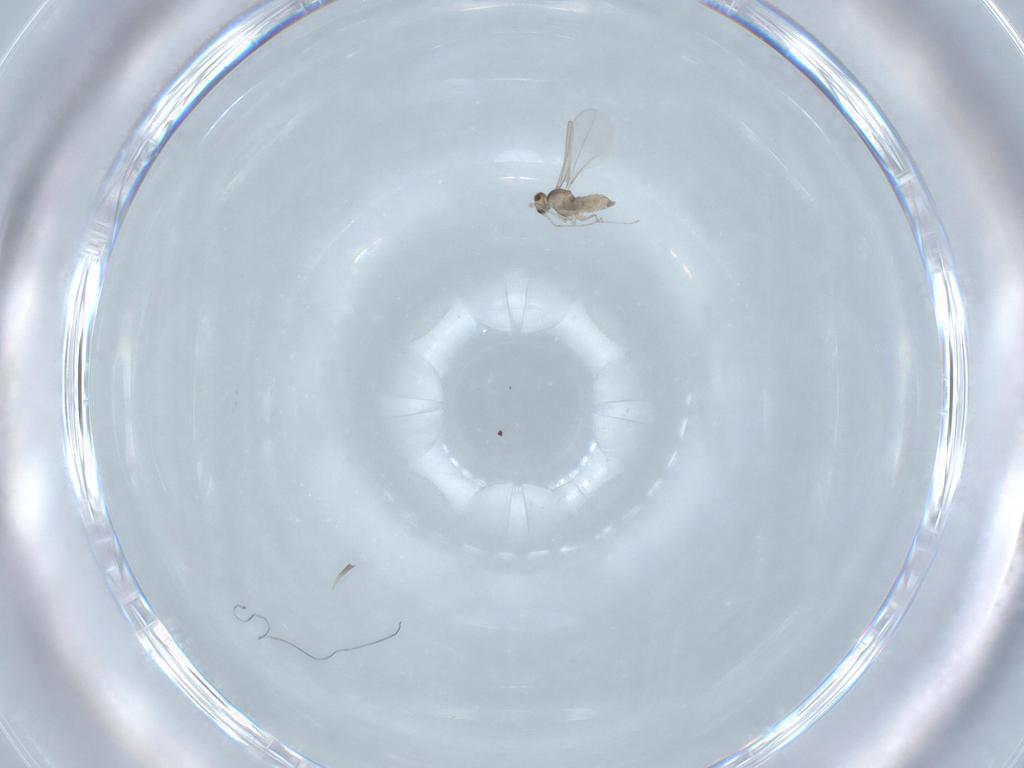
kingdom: Animalia
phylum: Arthropoda
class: Insecta
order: Diptera
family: Cecidomyiidae
